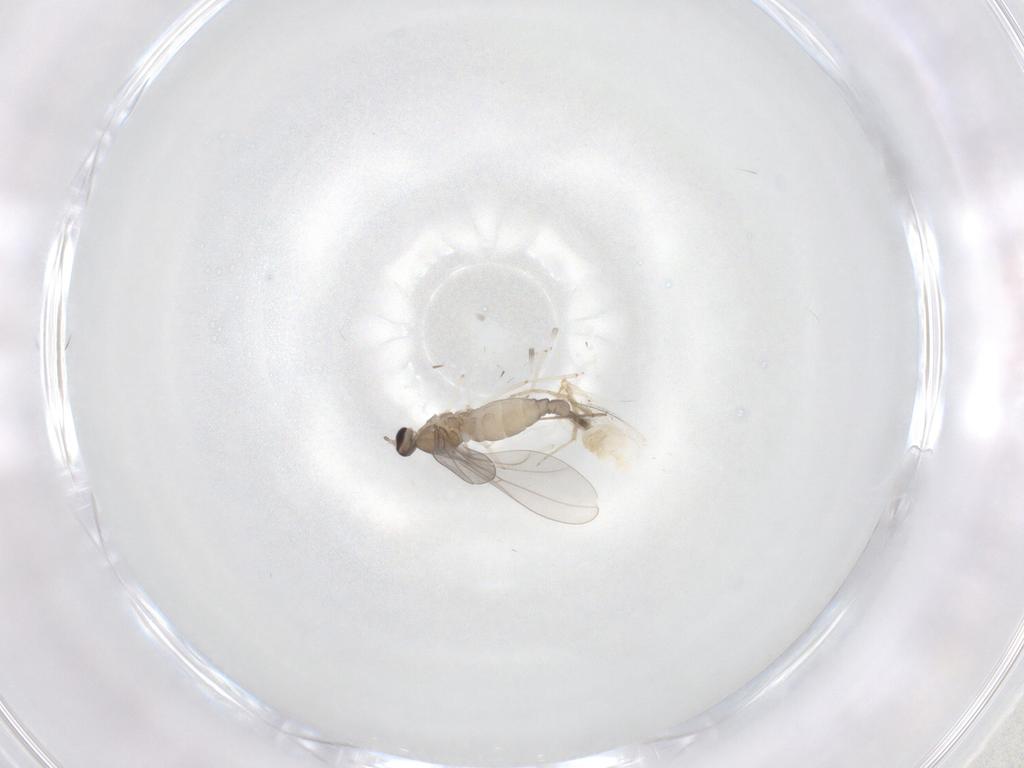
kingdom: Animalia
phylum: Arthropoda
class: Insecta
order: Diptera
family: Cecidomyiidae
